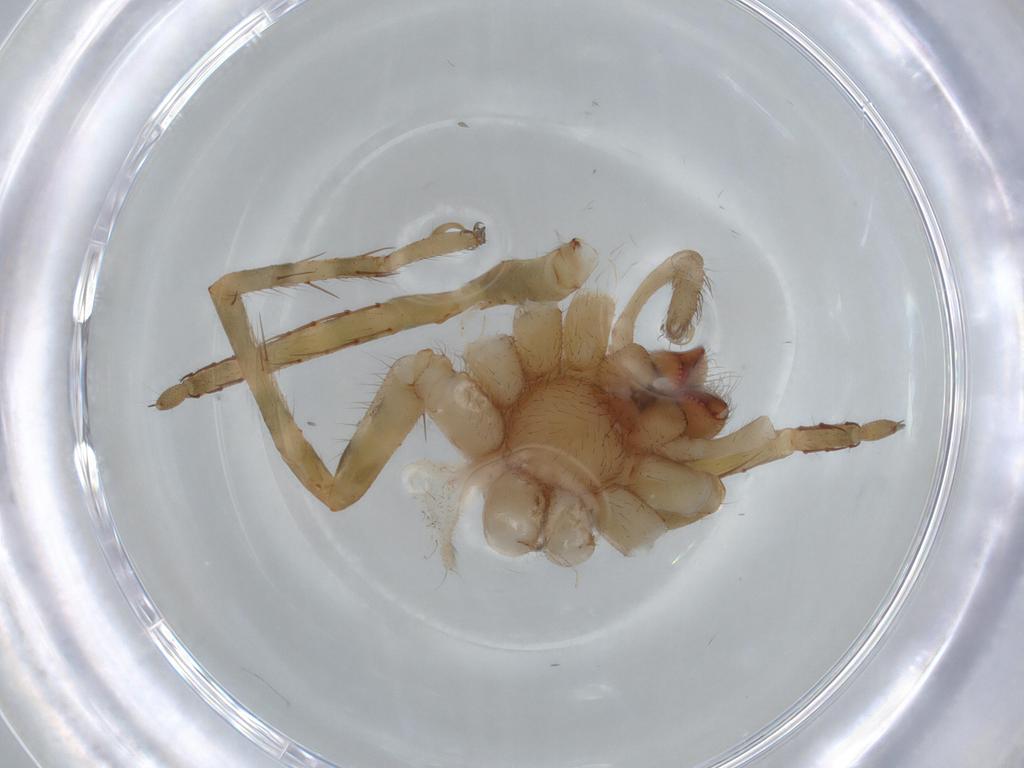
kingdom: Animalia
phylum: Arthropoda
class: Arachnida
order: Araneae
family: Ctenidae
